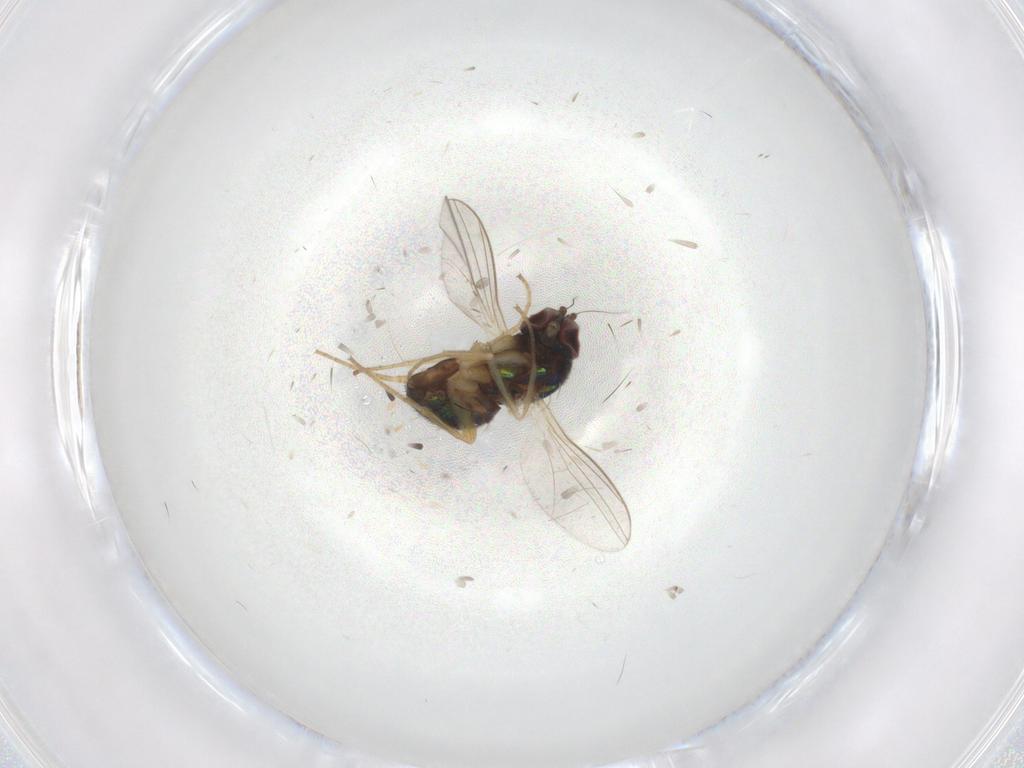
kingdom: Animalia
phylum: Arthropoda
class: Insecta
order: Diptera
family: Dolichopodidae
